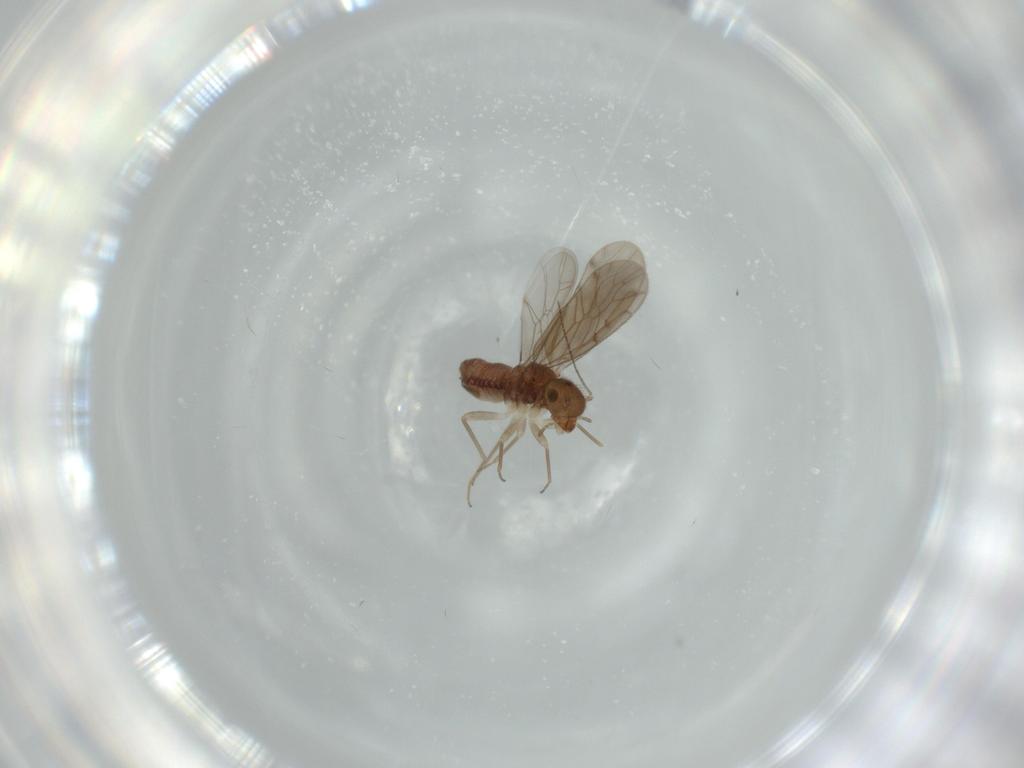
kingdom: Animalia
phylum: Arthropoda
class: Insecta
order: Psocodea
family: Ectopsocidae
